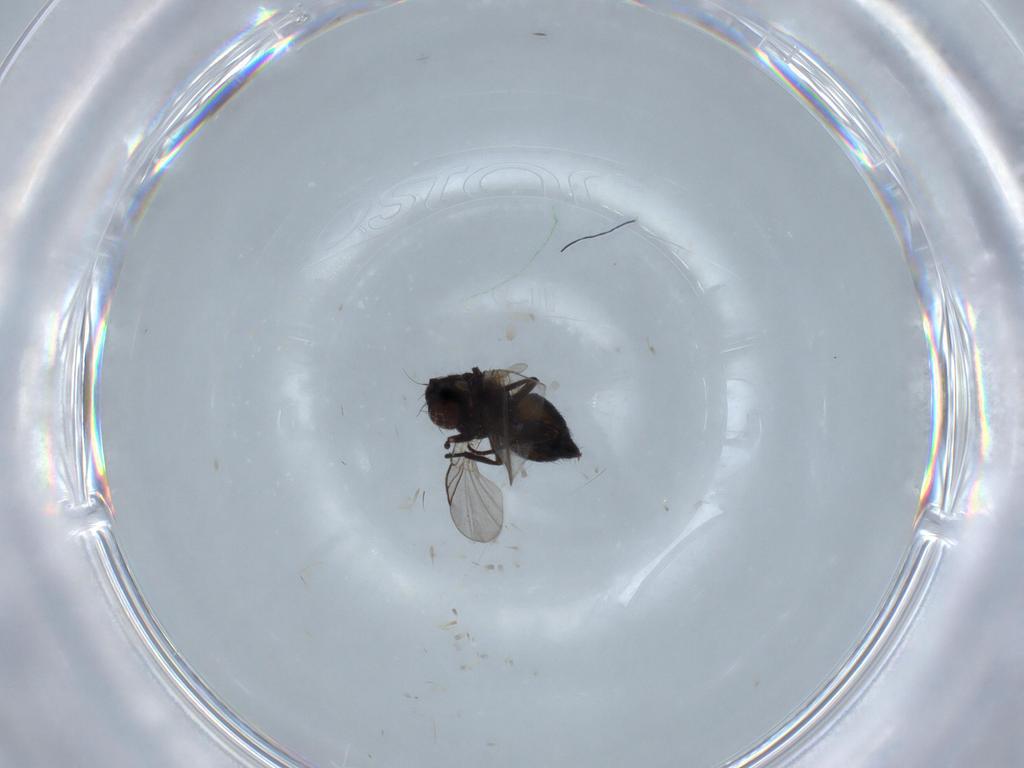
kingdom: Animalia
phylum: Arthropoda
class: Insecta
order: Diptera
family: Agromyzidae
